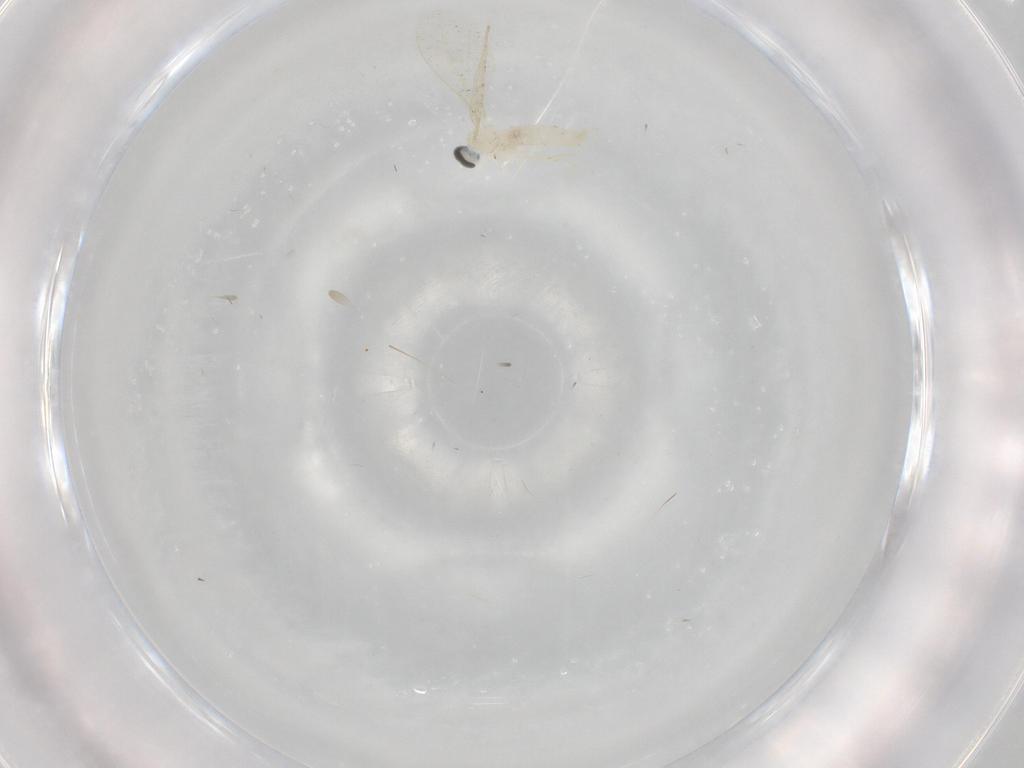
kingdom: Animalia
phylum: Arthropoda
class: Insecta
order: Diptera
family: Cecidomyiidae
